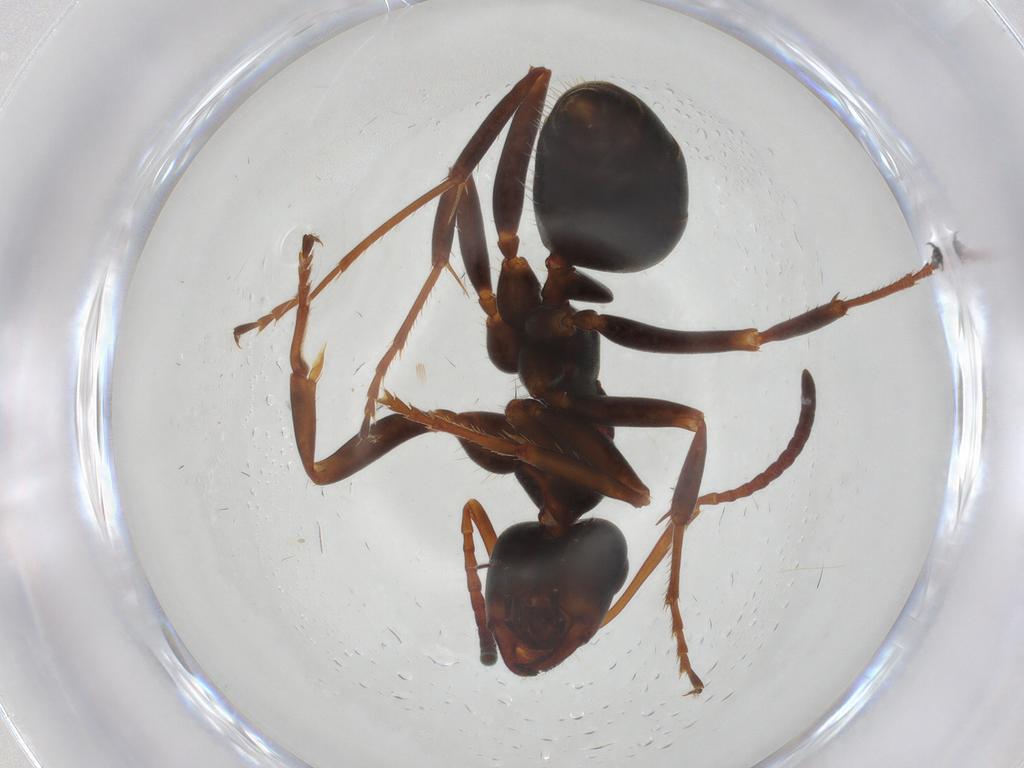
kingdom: Animalia
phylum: Arthropoda
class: Insecta
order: Hymenoptera
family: Formicidae
